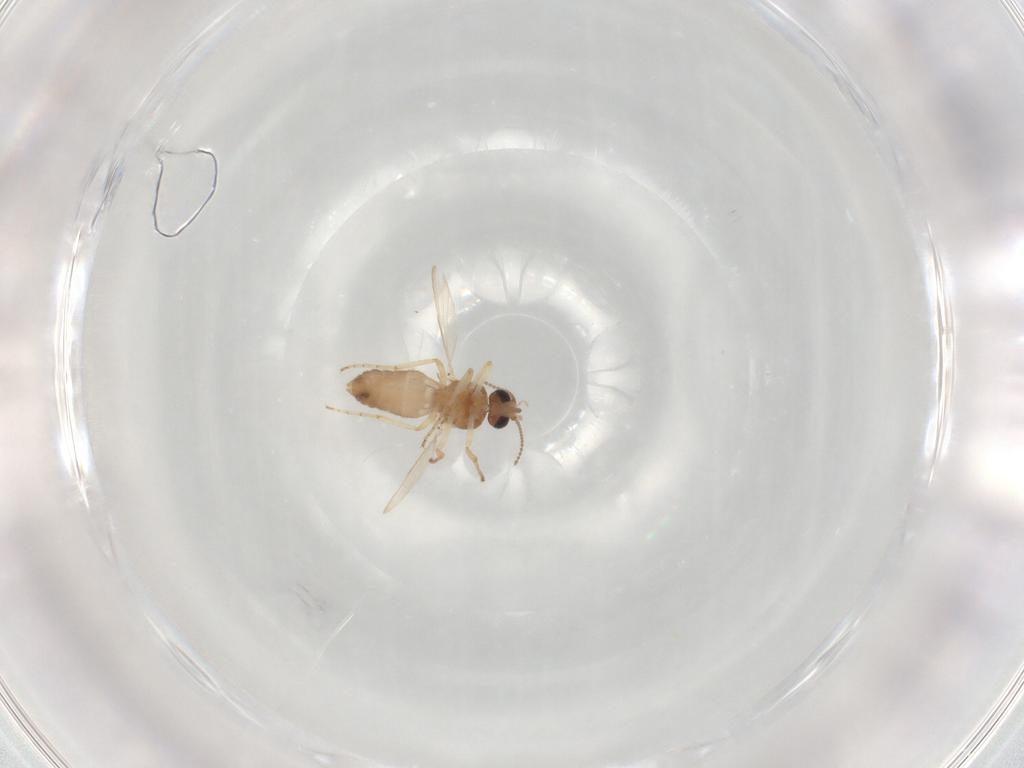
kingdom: Animalia
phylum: Arthropoda
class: Insecta
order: Diptera
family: Ceratopogonidae
